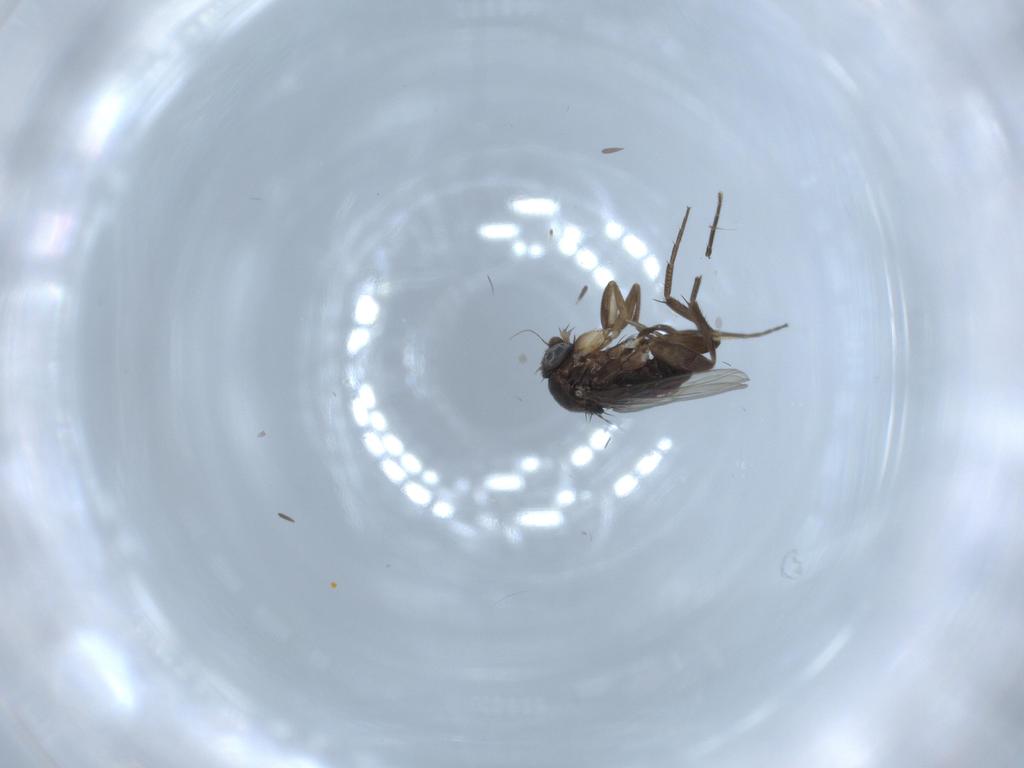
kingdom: Animalia
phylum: Arthropoda
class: Insecta
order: Diptera
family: Phoridae
